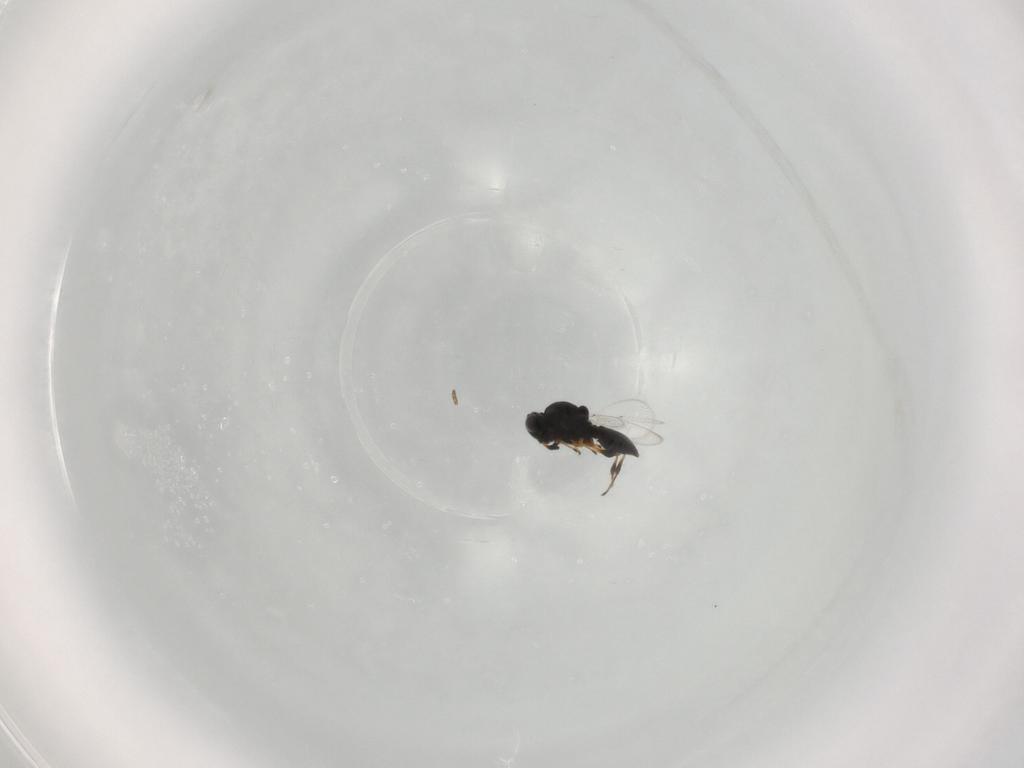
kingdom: Animalia
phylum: Arthropoda
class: Insecta
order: Hymenoptera
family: Platygastridae
